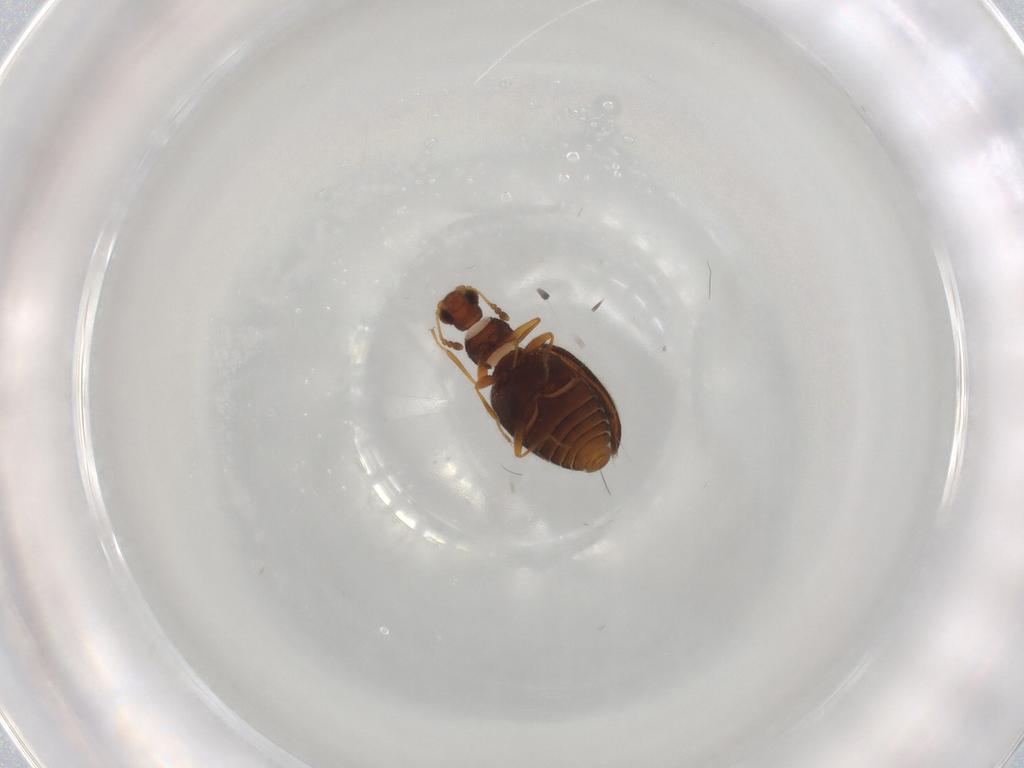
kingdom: Animalia
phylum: Arthropoda
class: Insecta
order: Coleoptera
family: Latridiidae
